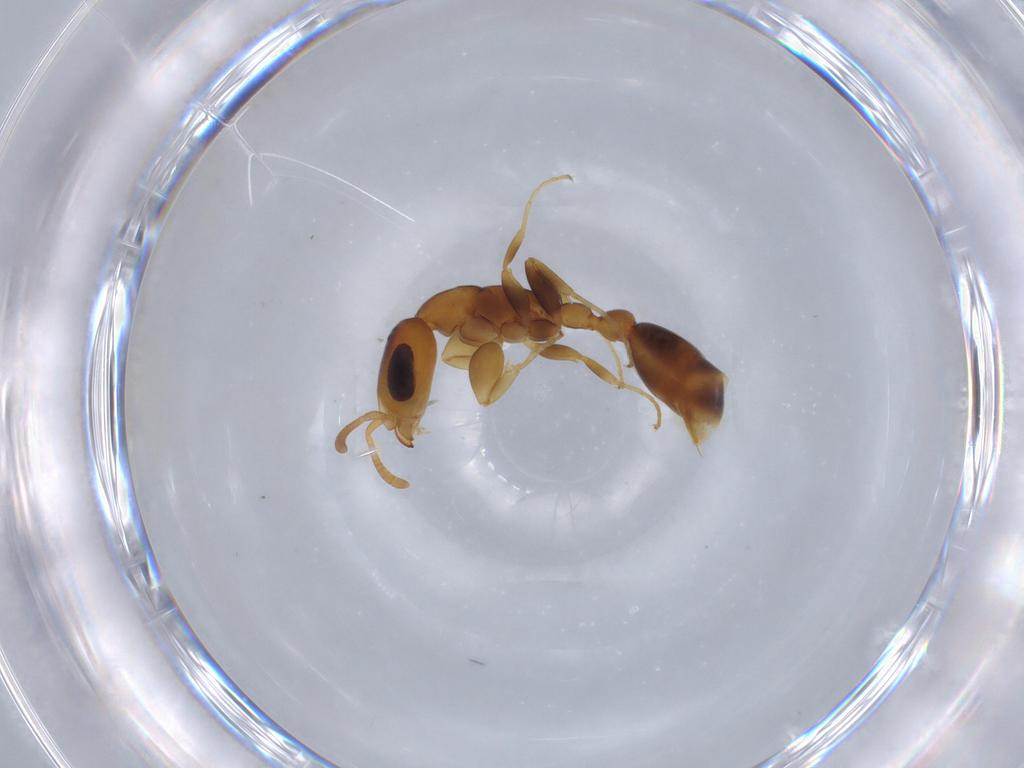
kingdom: Animalia
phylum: Arthropoda
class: Insecta
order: Hymenoptera
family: Formicidae
